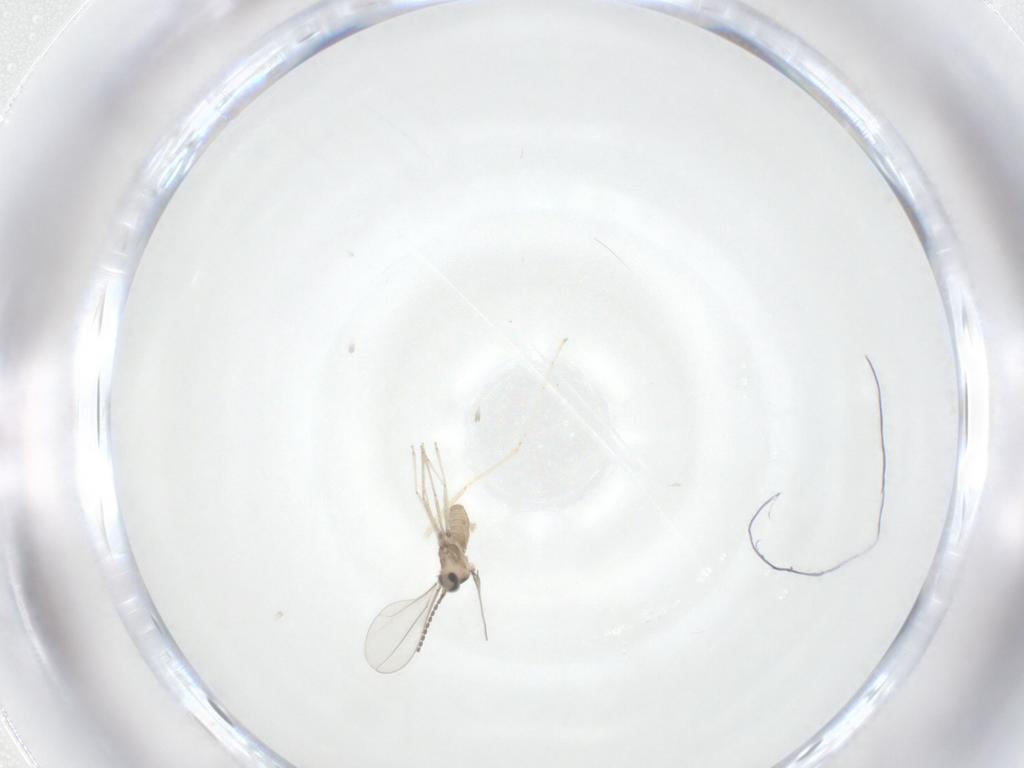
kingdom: Animalia
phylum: Arthropoda
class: Insecta
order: Diptera
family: Cecidomyiidae
